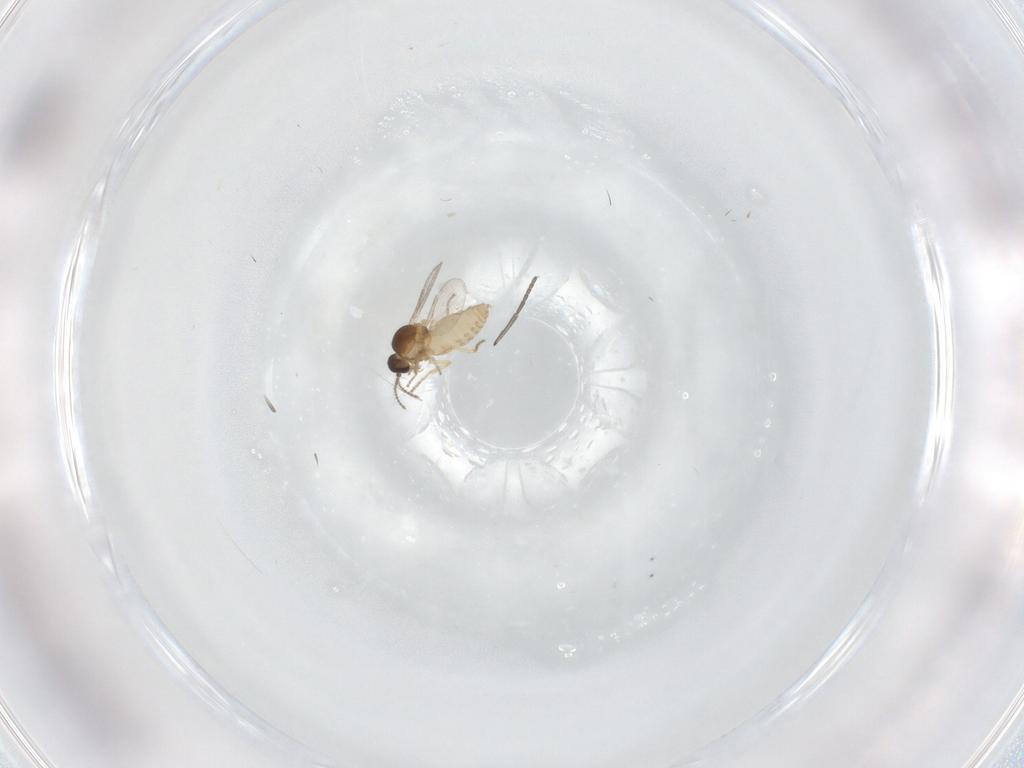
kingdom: Animalia
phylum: Arthropoda
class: Insecta
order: Diptera
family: Ceratopogonidae
